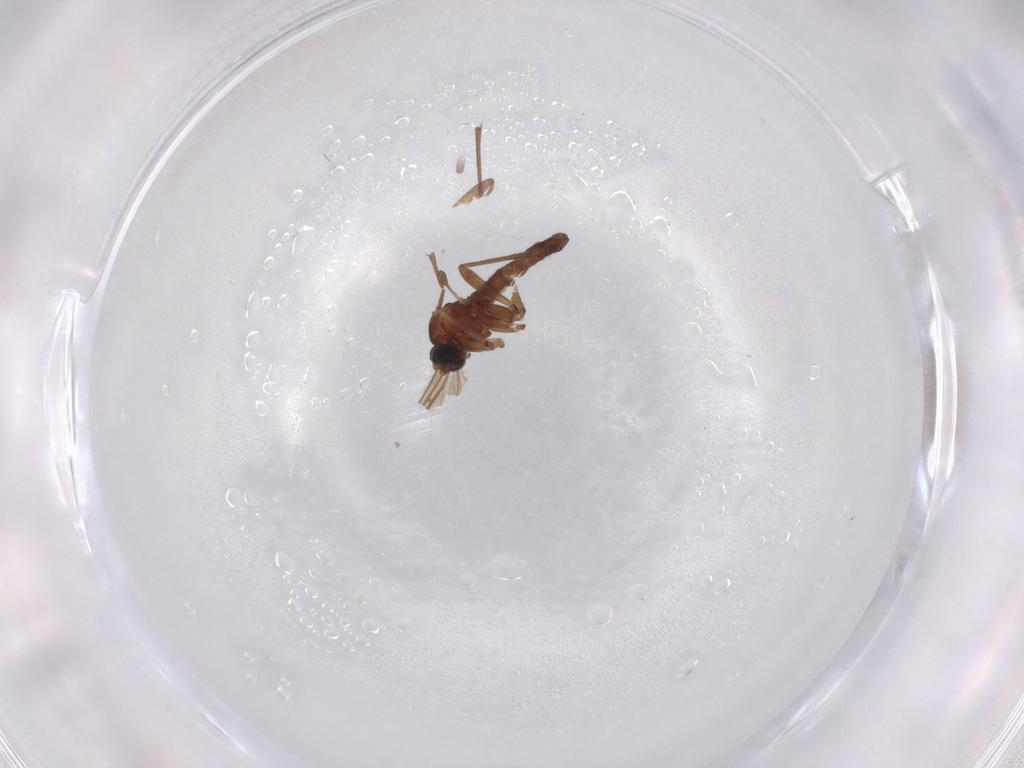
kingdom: Animalia
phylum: Arthropoda
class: Insecta
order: Diptera
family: Sciaridae
